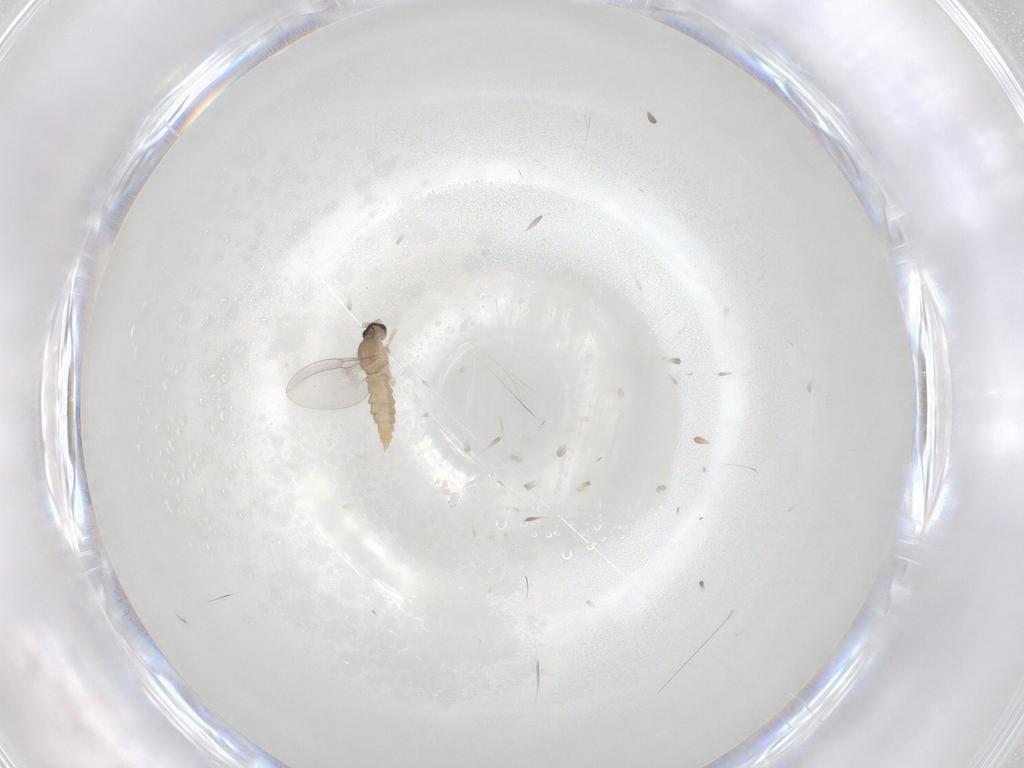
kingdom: Animalia
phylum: Arthropoda
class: Insecta
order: Diptera
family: Cecidomyiidae
